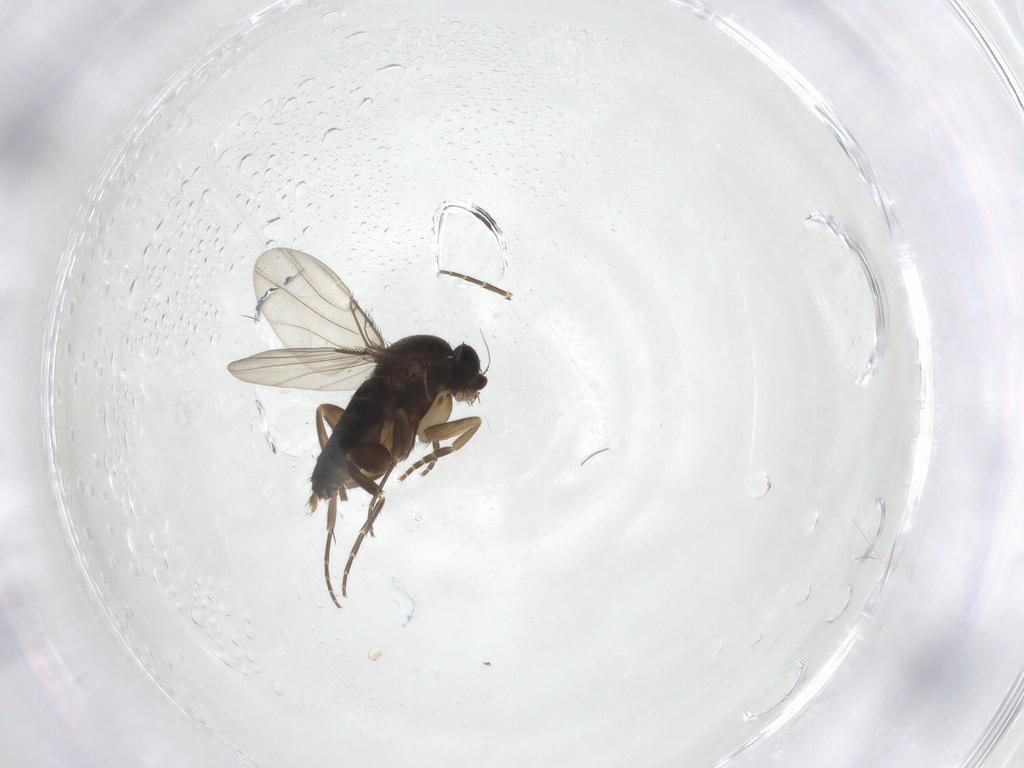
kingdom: Animalia
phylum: Arthropoda
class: Insecta
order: Diptera
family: Phoridae
